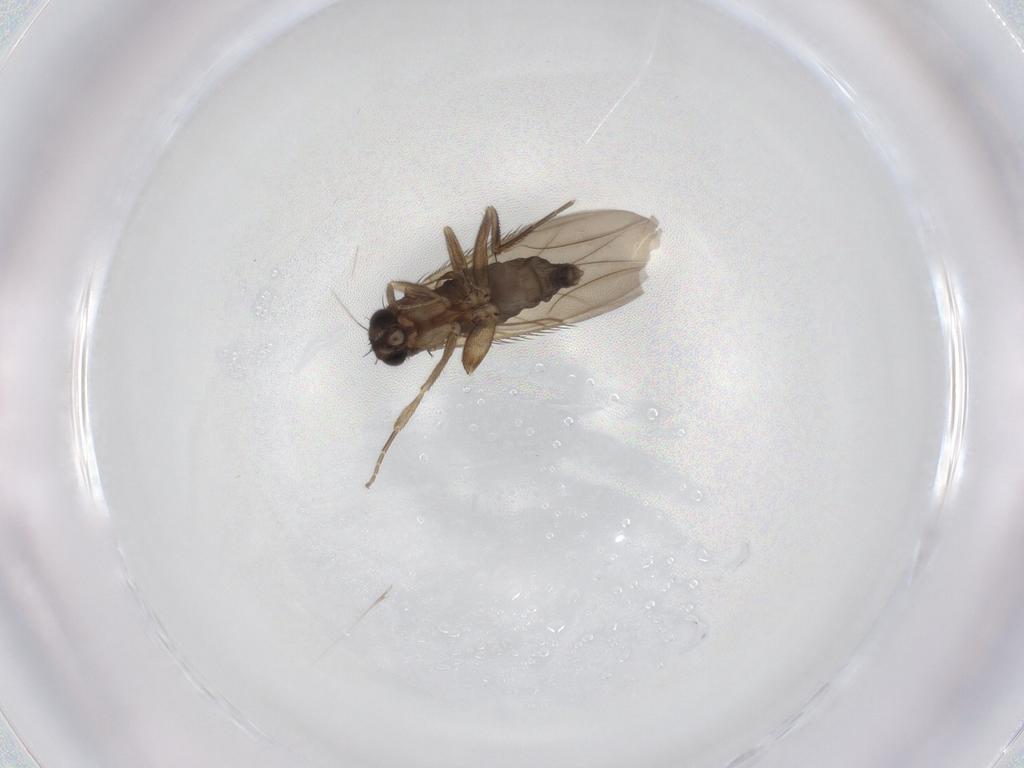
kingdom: Animalia
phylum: Arthropoda
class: Insecta
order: Diptera
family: Phoridae
